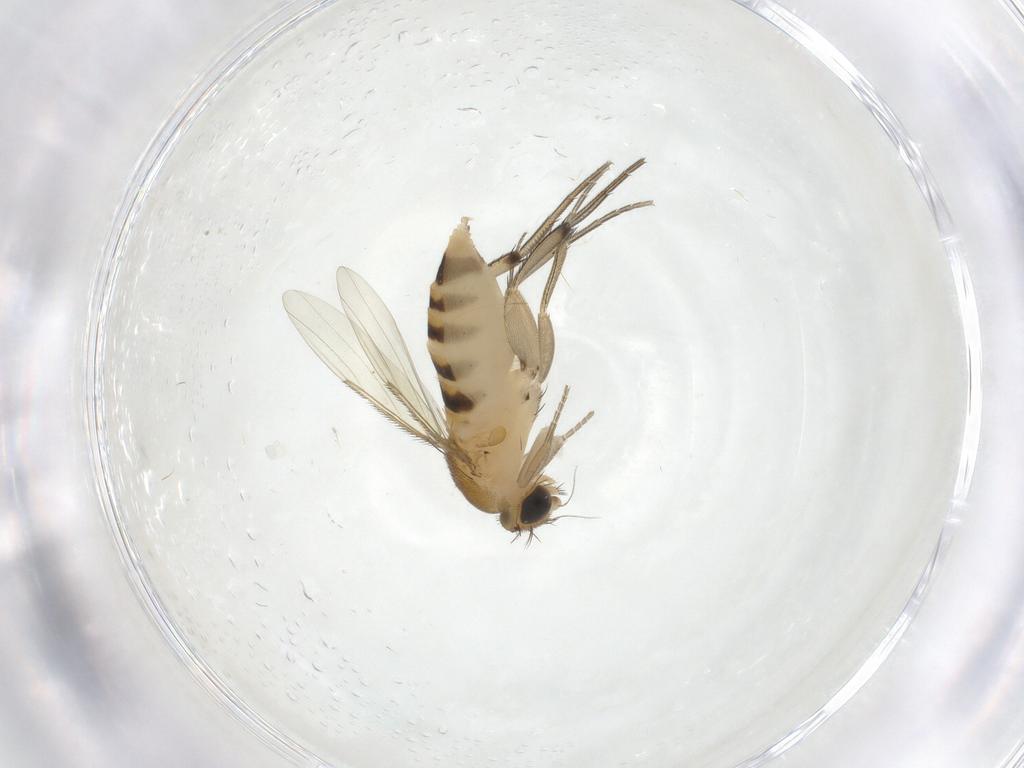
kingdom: Animalia
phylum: Arthropoda
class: Insecta
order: Diptera
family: Phoridae
